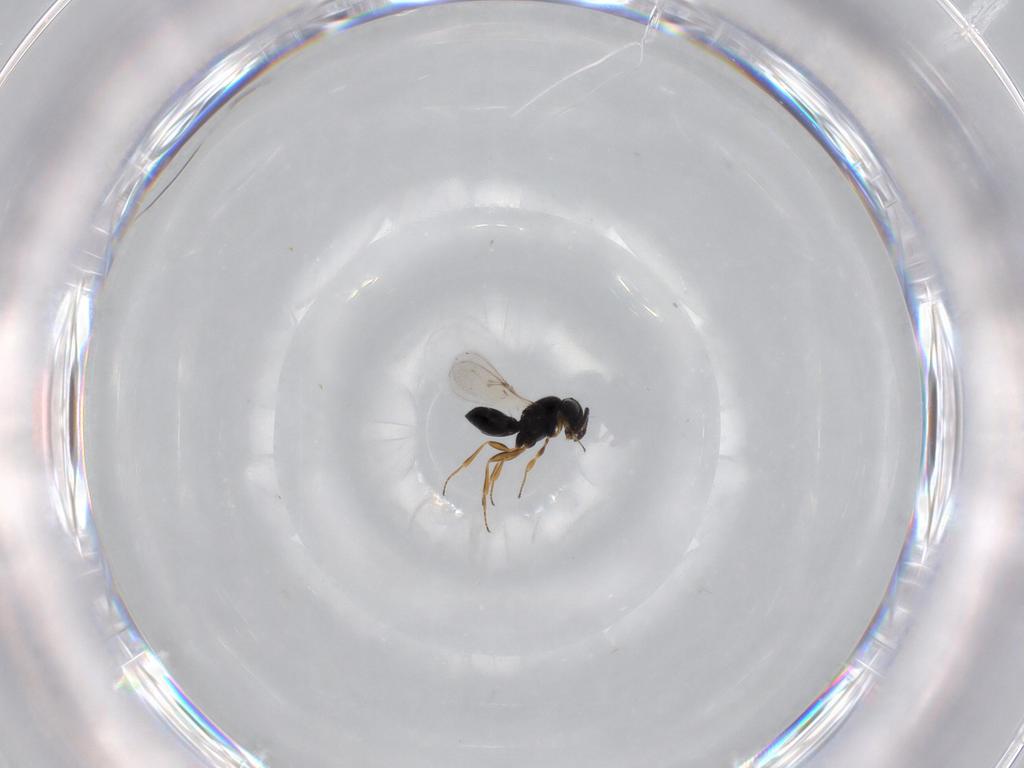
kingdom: Animalia
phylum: Arthropoda
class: Insecta
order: Hymenoptera
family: Scelionidae
